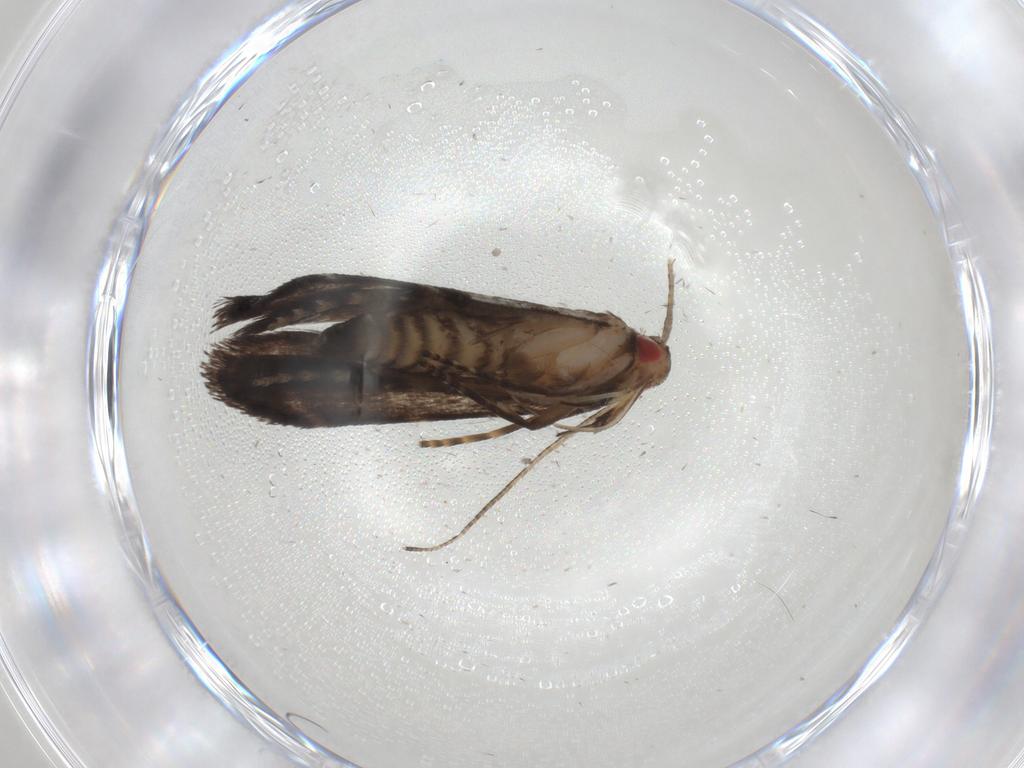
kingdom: Animalia
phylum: Arthropoda
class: Insecta
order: Lepidoptera
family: Gelechiidae
